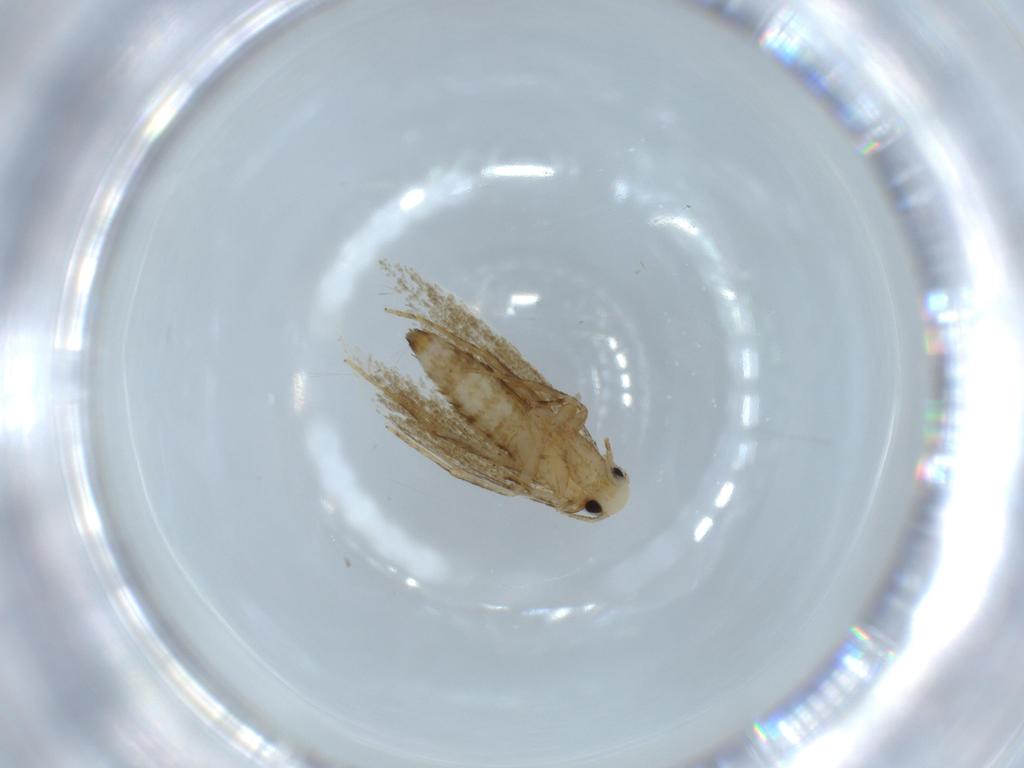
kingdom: Animalia
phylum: Arthropoda
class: Insecta
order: Lepidoptera
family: Tineidae
